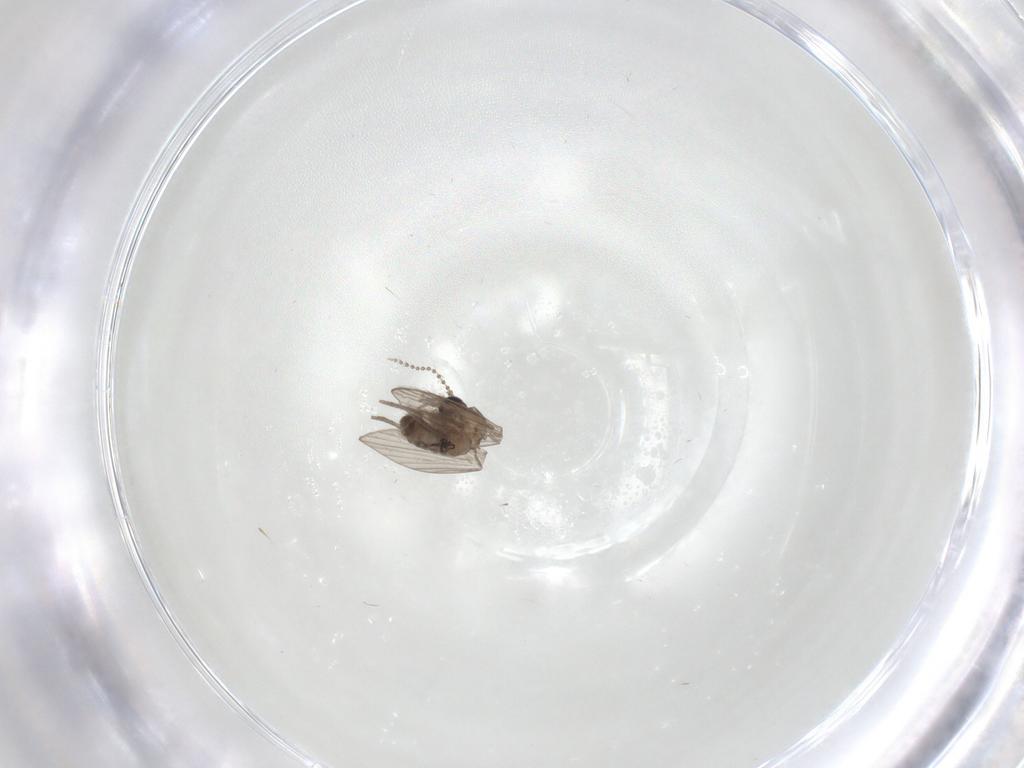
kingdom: Animalia
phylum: Arthropoda
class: Insecta
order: Diptera
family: Chironomidae
